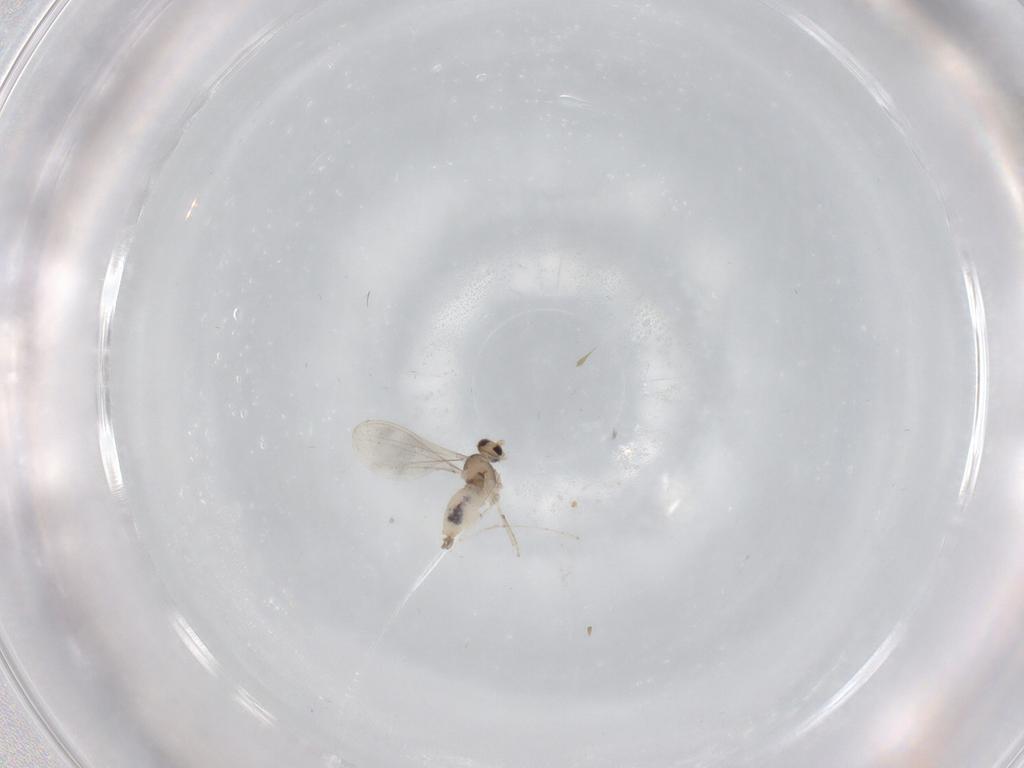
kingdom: Animalia
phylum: Arthropoda
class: Insecta
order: Diptera
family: Cecidomyiidae
